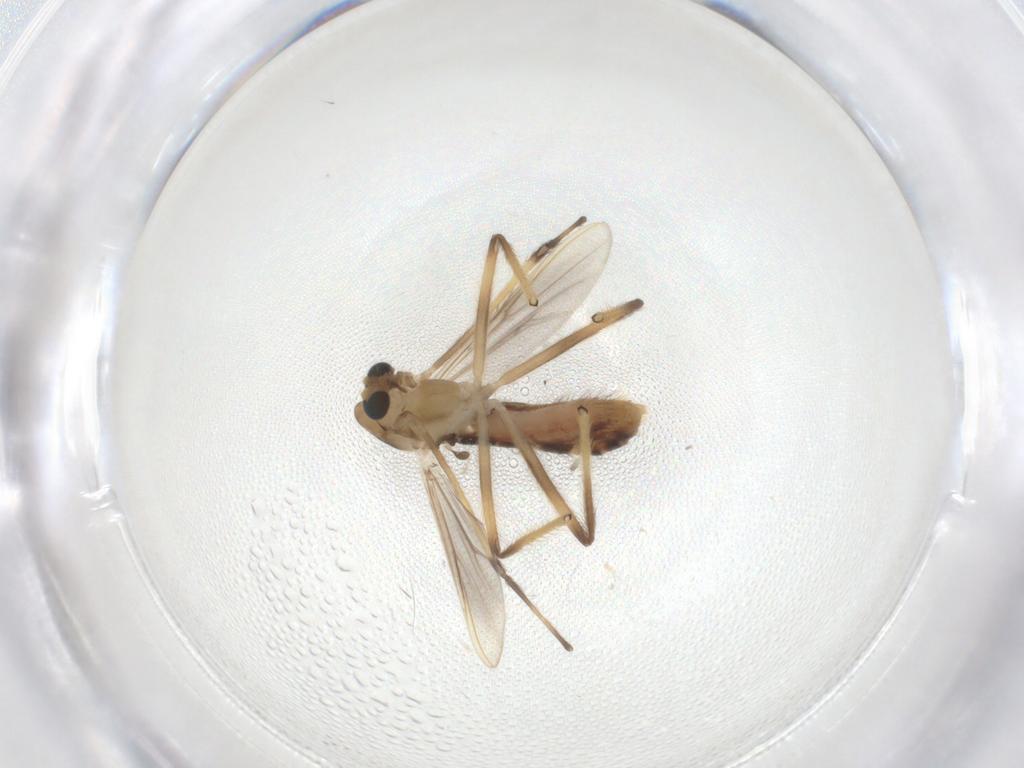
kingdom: Animalia
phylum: Arthropoda
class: Insecta
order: Diptera
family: Chironomidae
